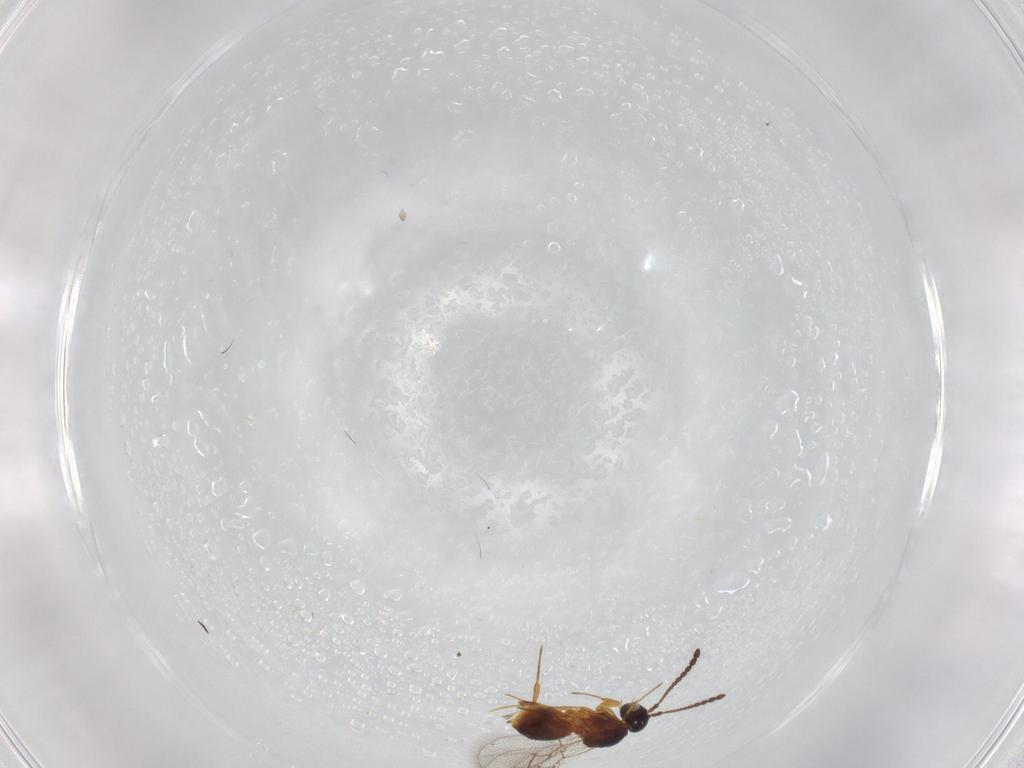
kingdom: Animalia
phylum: Arthropoda
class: Insecta
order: Hymenoptera
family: Figitidae
